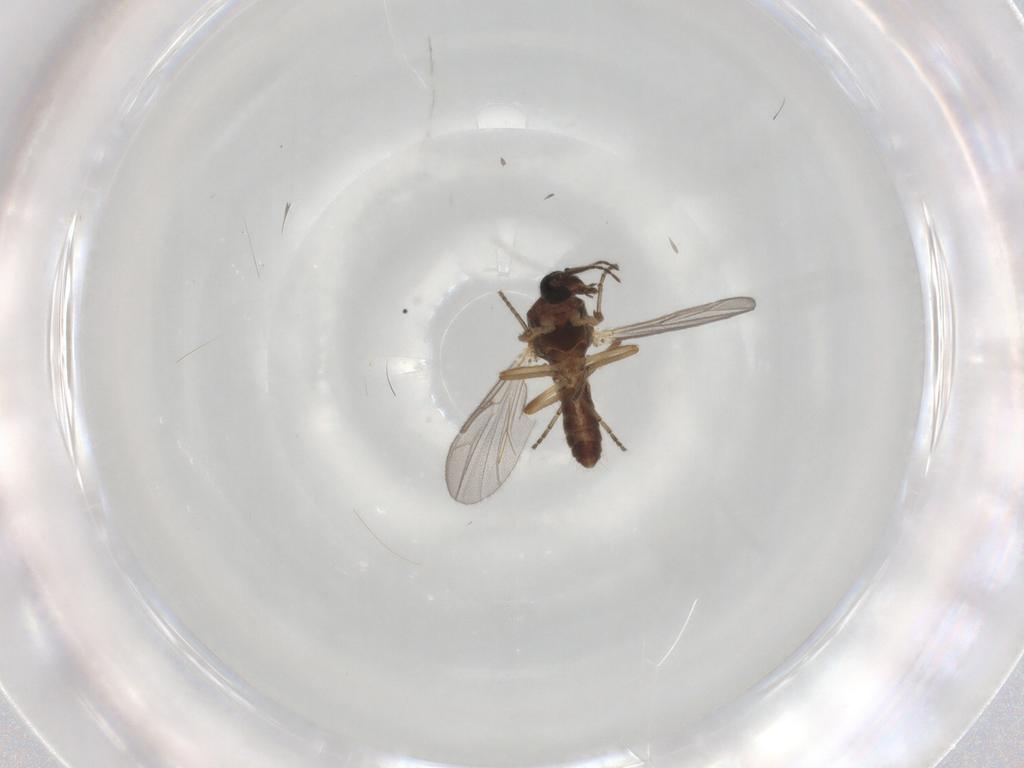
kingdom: Animalia
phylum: Arthropoda
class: Insecta
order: Diptera
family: Ceratopogonidae
